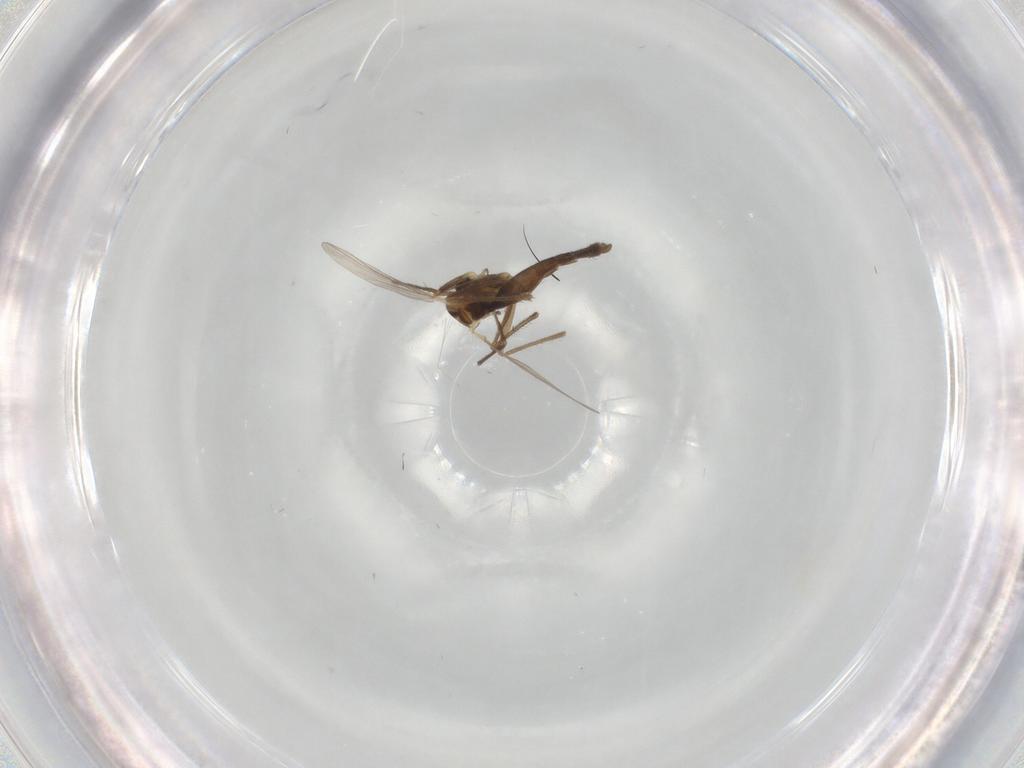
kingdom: Animalia
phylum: Arthropoda
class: Insecta
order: Diptera
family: Chironomidae
